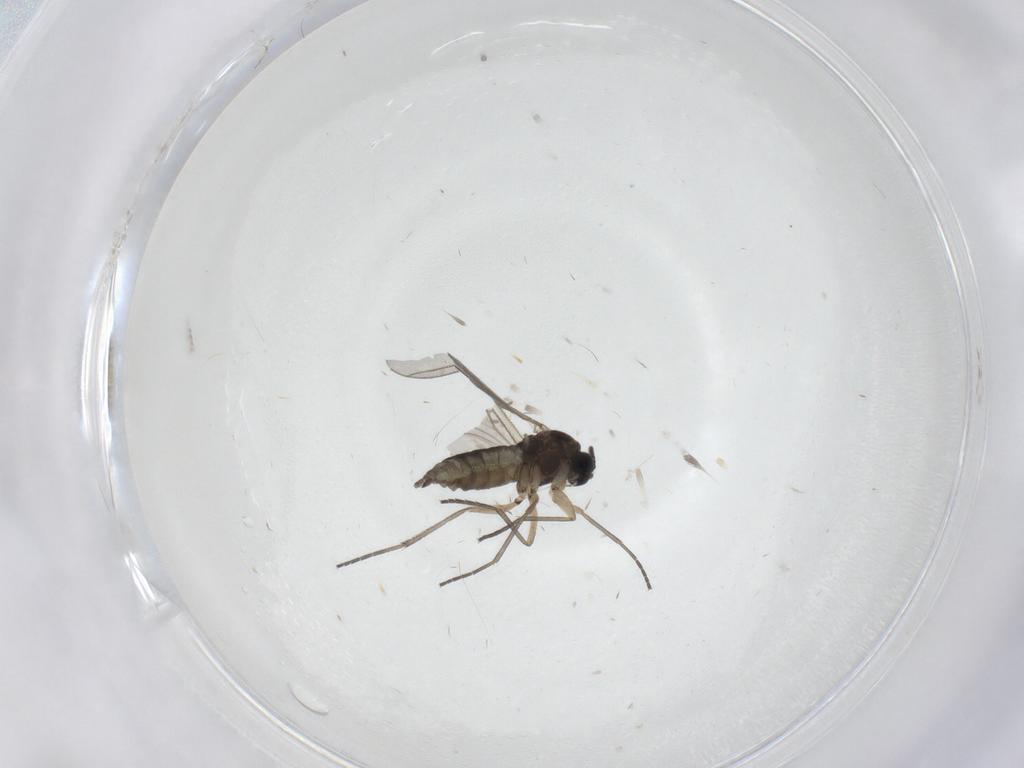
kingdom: Animalia
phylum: Arthropoda
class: Insecta
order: Diptera
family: Sciaridae
